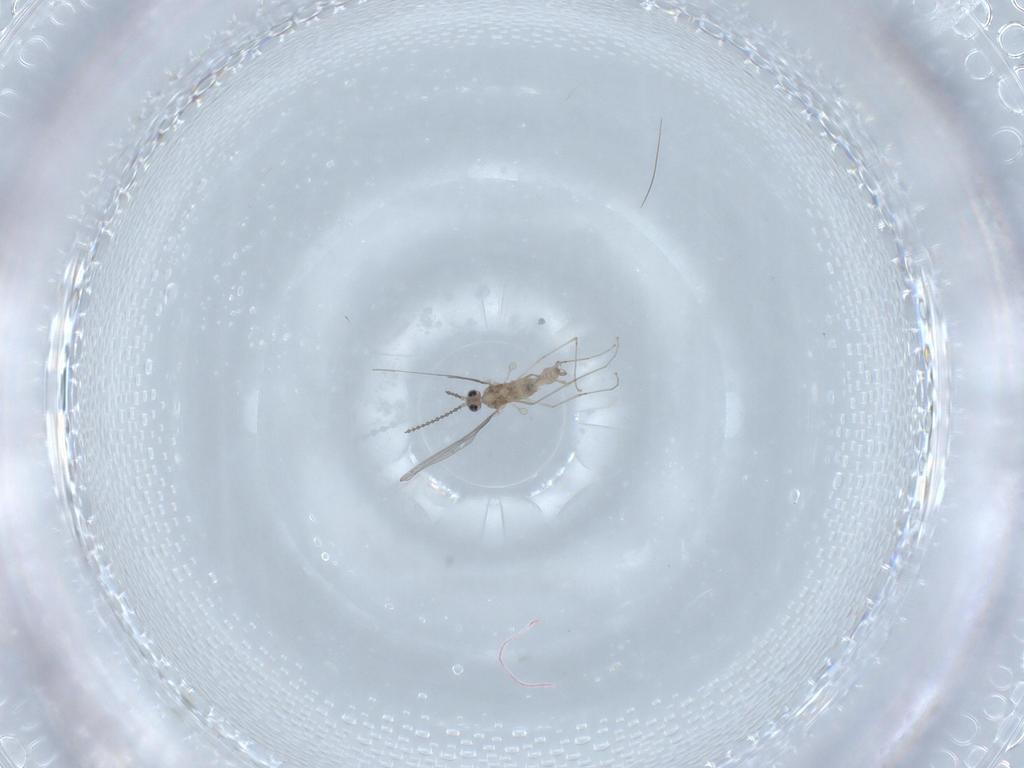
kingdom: Animalia
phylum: Arthropoda
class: Insecta
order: Diptera
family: Cecidomyiidae
